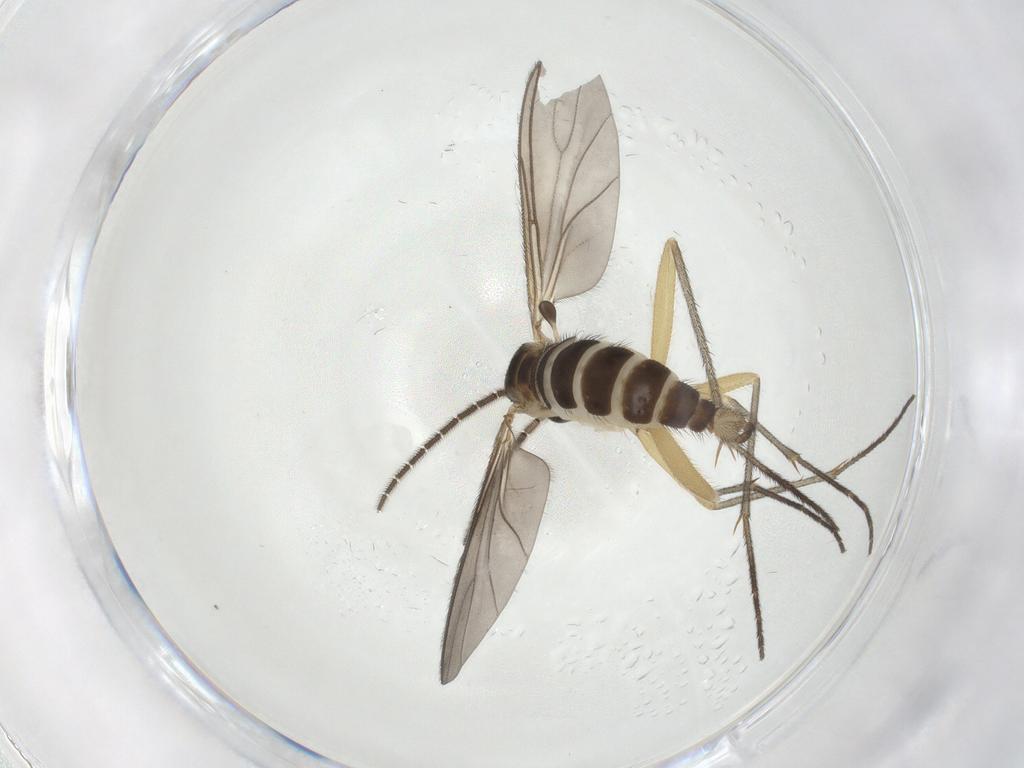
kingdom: Animalia
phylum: Arthropoda
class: Insecta
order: Diptera
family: Sciaridae
